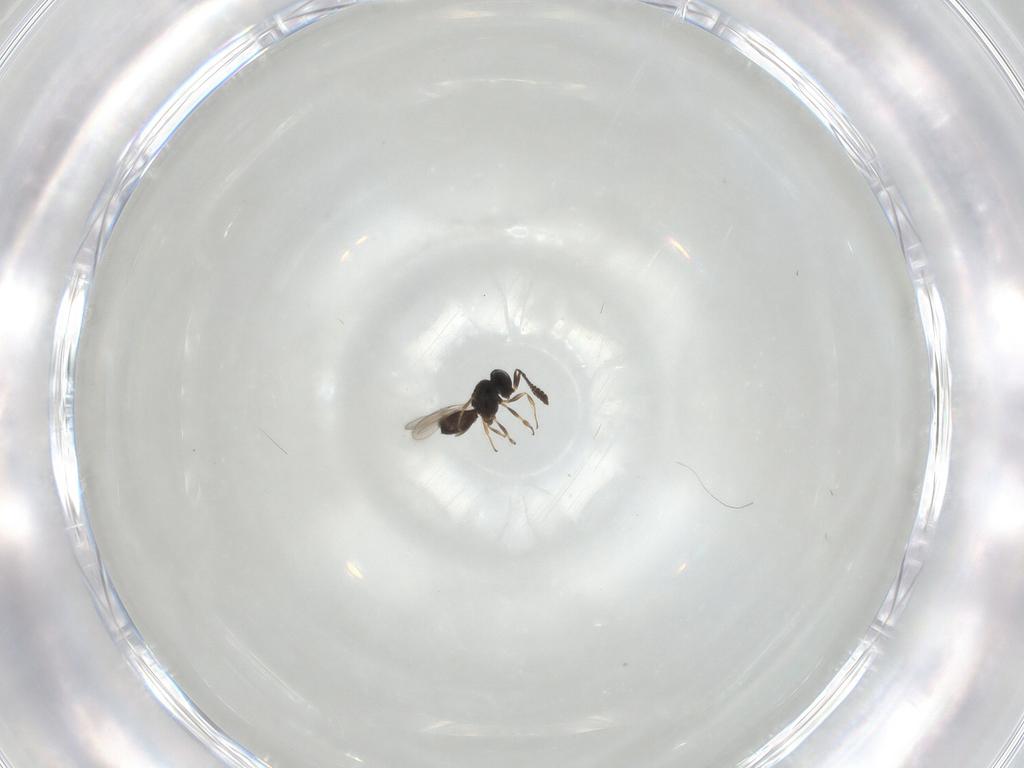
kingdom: Animalia
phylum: Arthropoda
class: Insecta
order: Hymenoptera
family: Scelionidae
